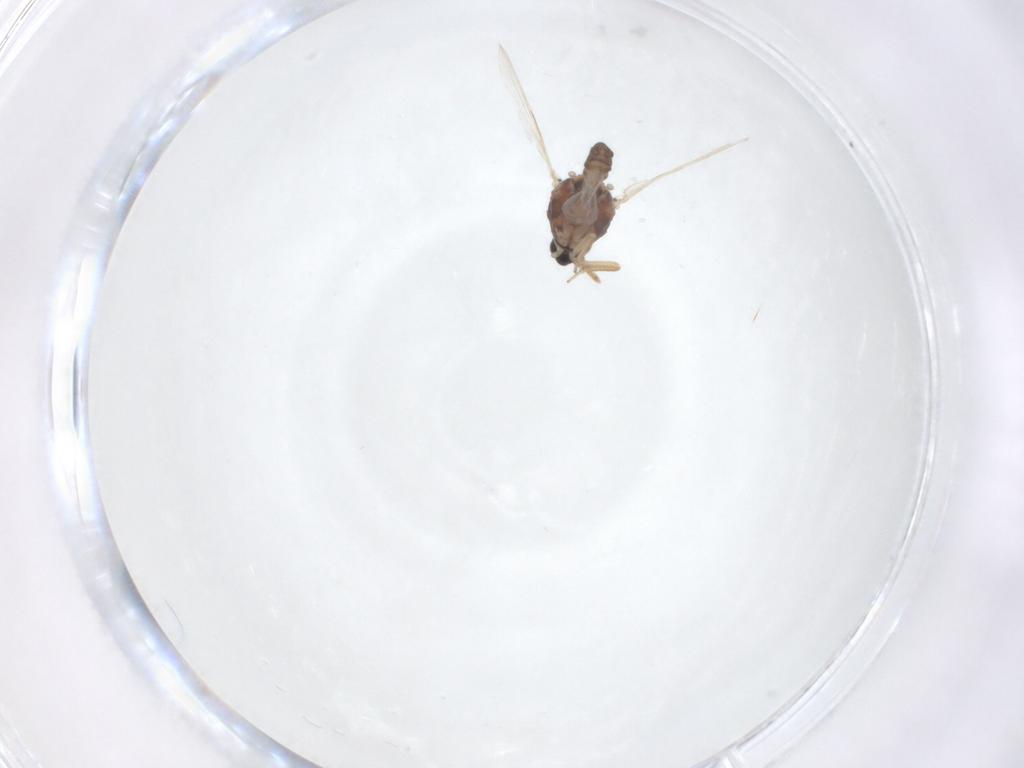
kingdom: Animalia
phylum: Arthropoda
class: Insecta
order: Diptera
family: Ceratopogonidae
